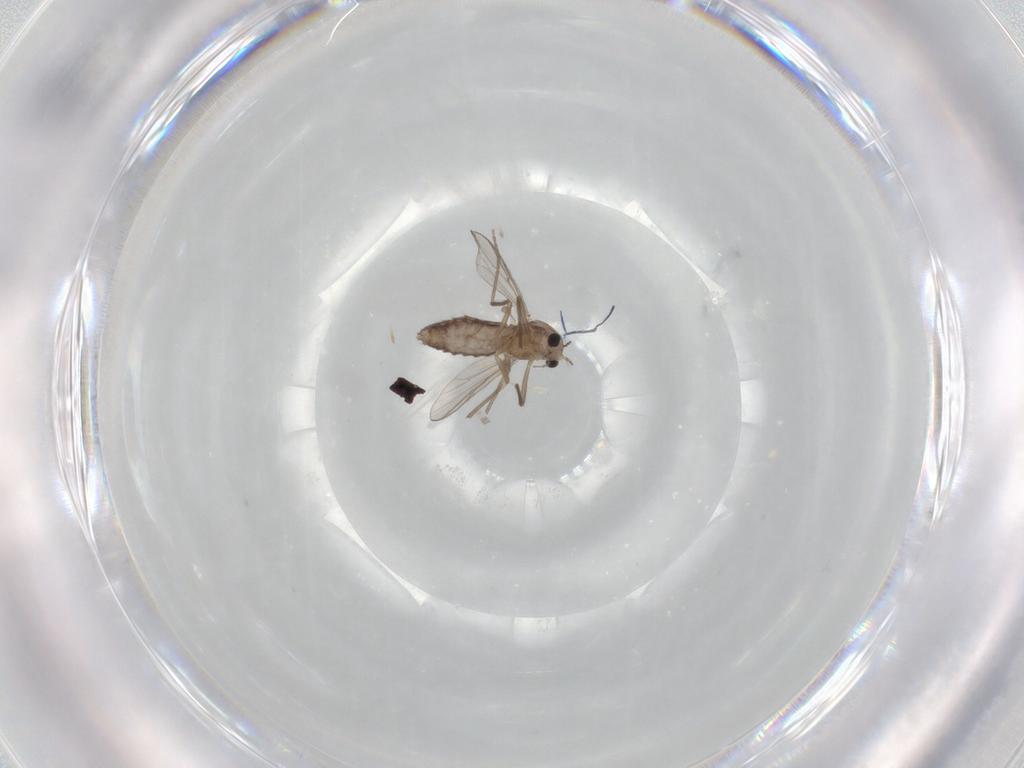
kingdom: Animalia
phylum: Arthropoda
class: Insecta
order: Diptera
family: Chironomidae
